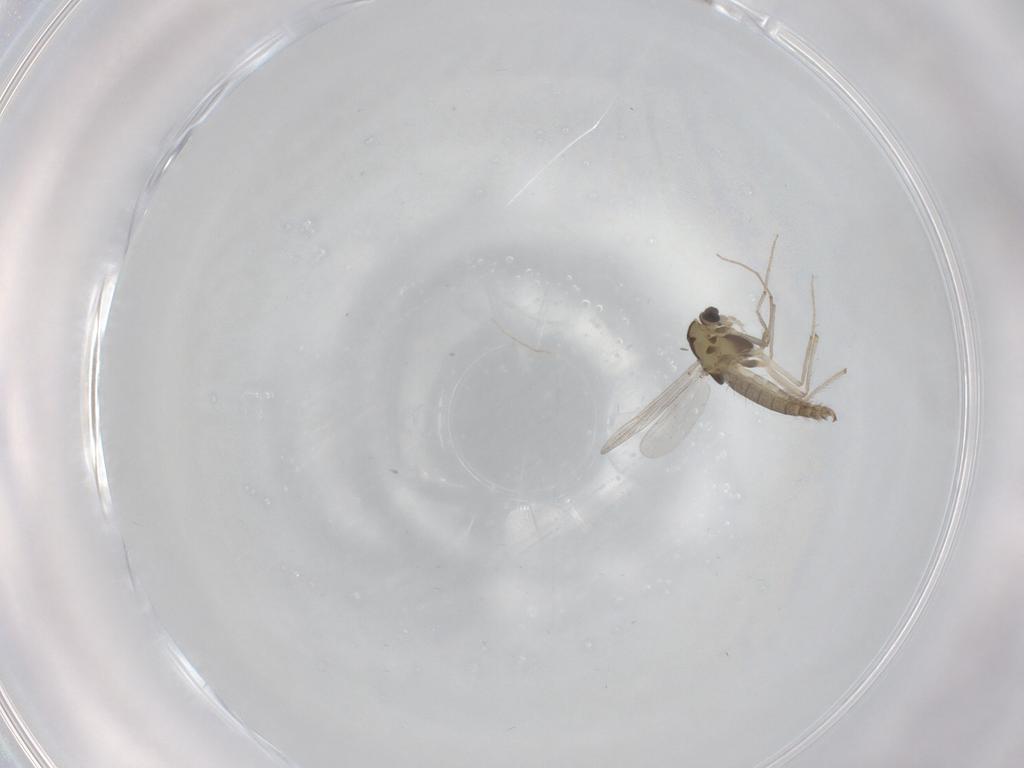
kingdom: Animalia
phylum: Arthropoda
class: Insecta
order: Diptera
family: Chironomidae
